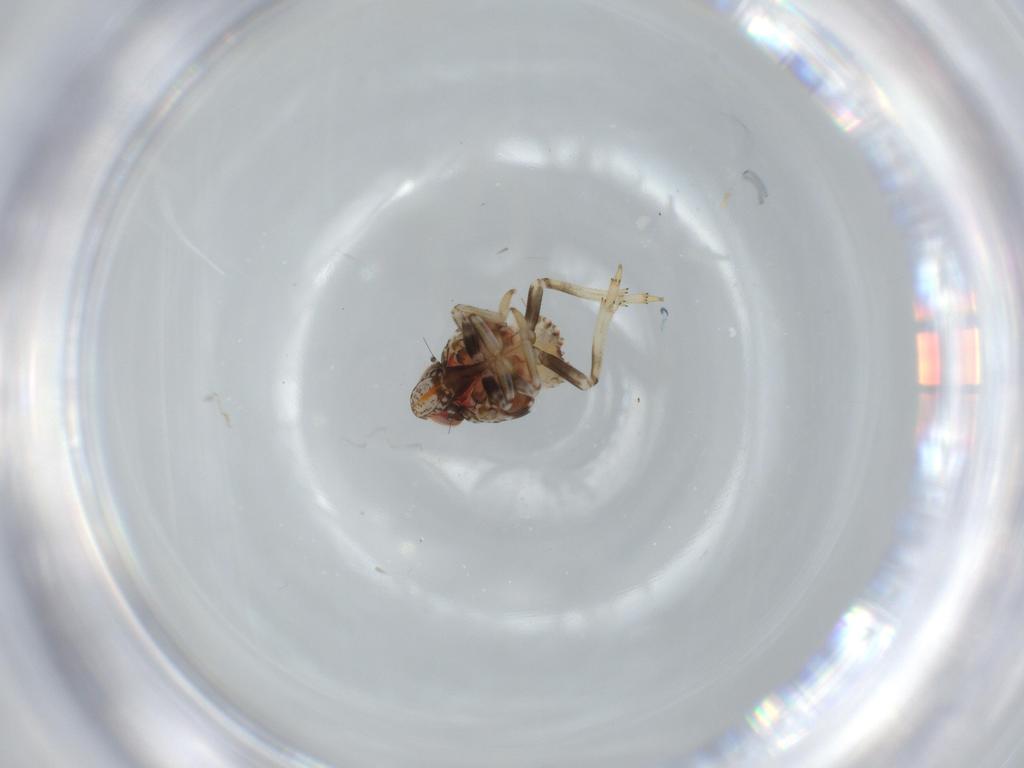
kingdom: Animalia
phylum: Arthropoda
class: Insecta
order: Hemiptera
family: Issidae
